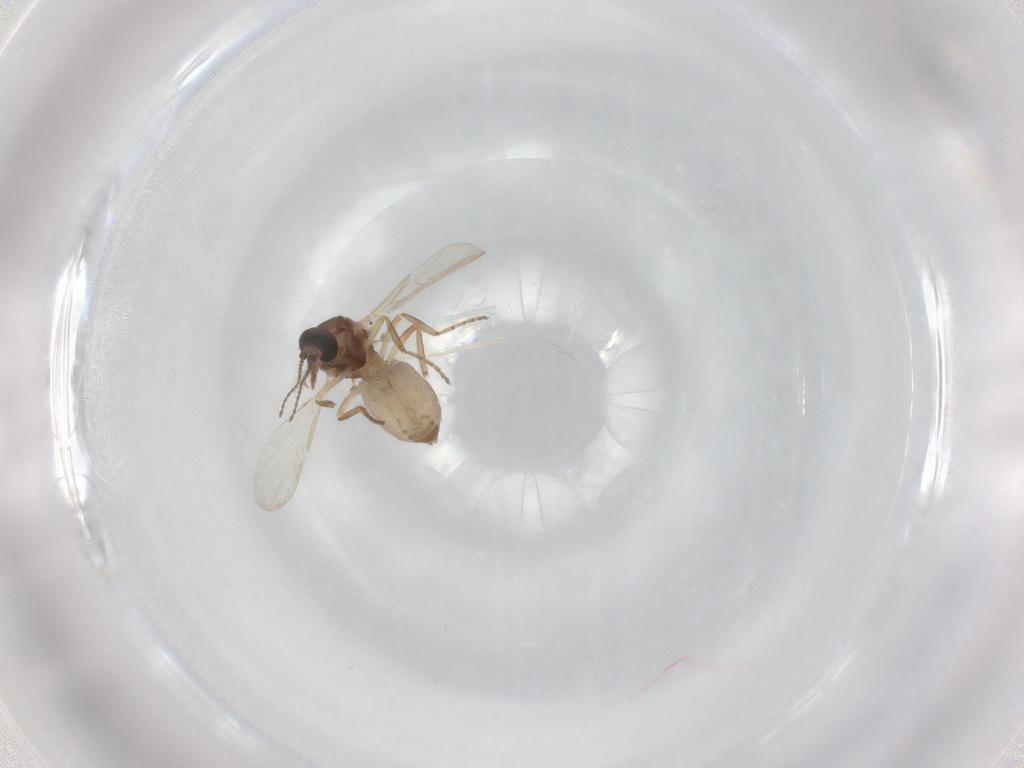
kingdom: Animalia
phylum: Arthropoda
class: Insecta
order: Diptera
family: Ceratopogonidae
